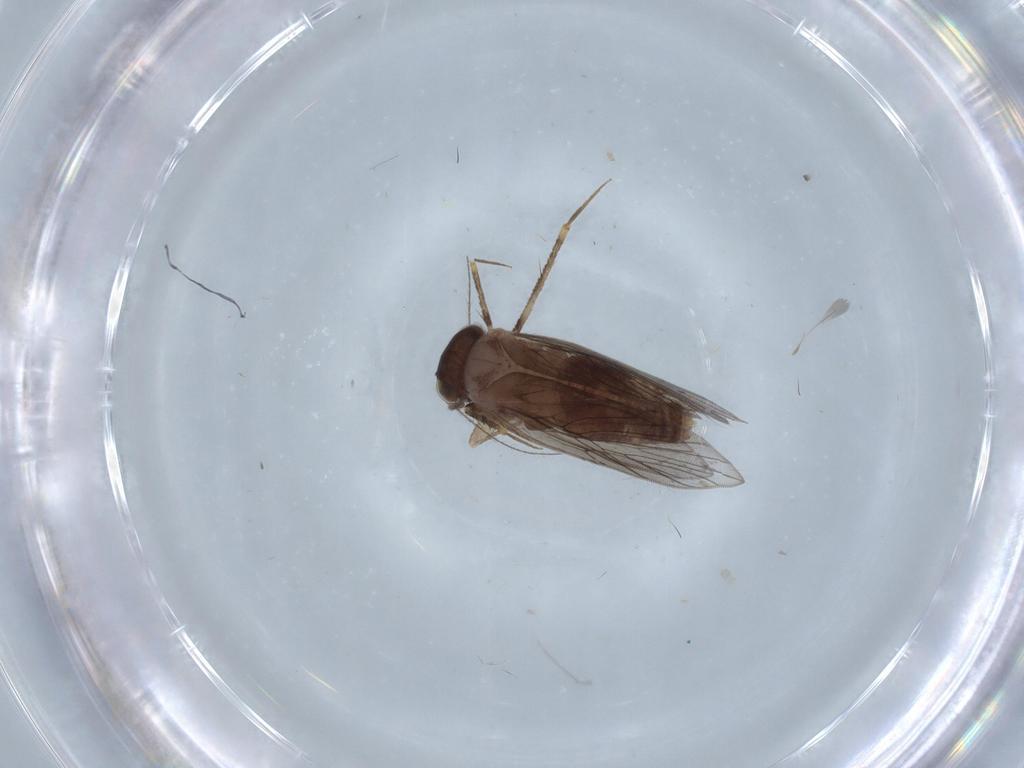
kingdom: Animalia
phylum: Arthropoda
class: Insecta
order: Psocodea
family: Lepidopsocidae
